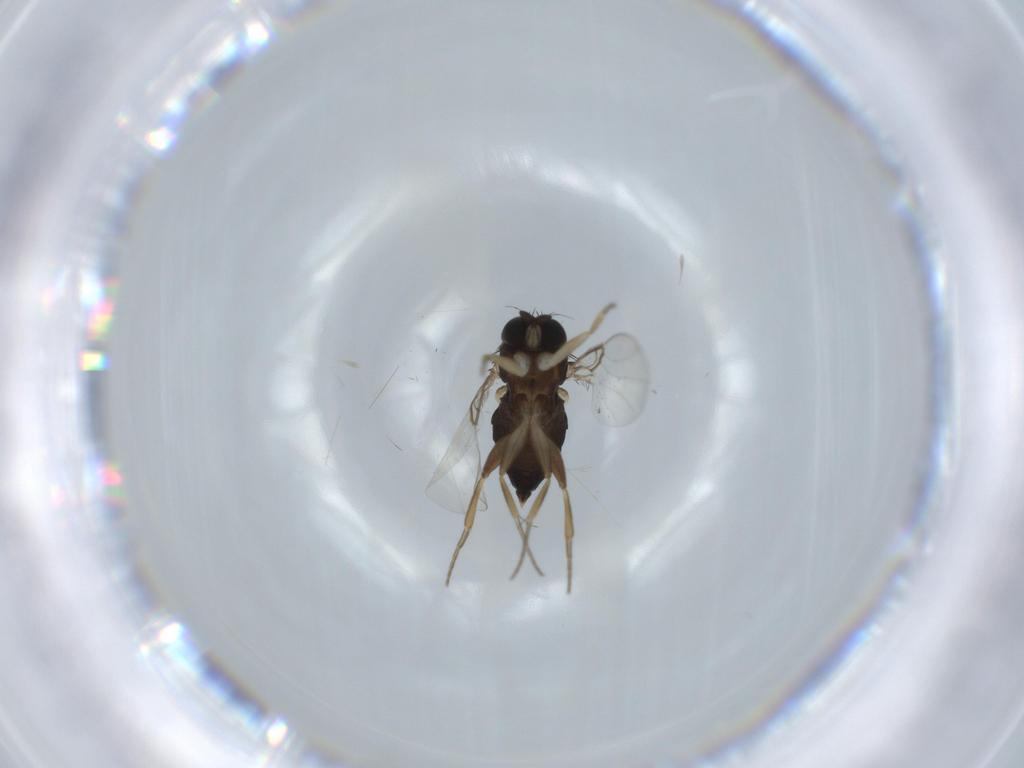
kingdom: Animalia
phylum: Arthropoda
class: Insecta
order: Diptera
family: Phoridae
